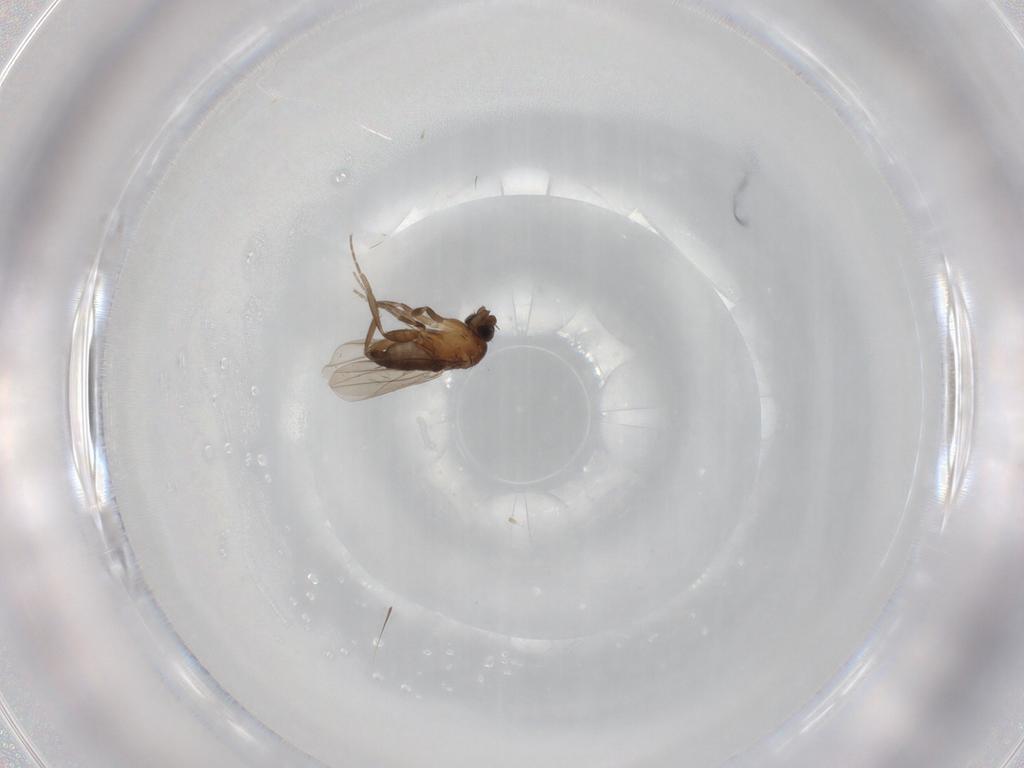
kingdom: Animalia
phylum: Arthropoda
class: Insecta
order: Diptera
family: Phoridae
